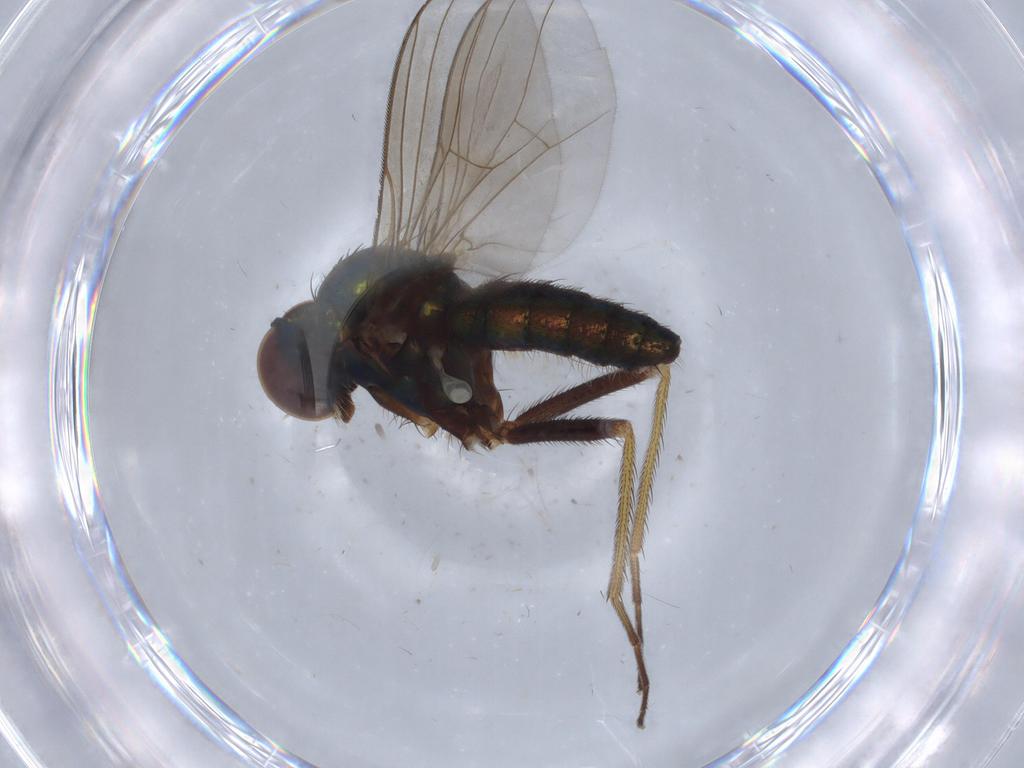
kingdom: Animalia
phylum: Arthropoda
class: Insecta
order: Diptera
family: Dolichopodidae
